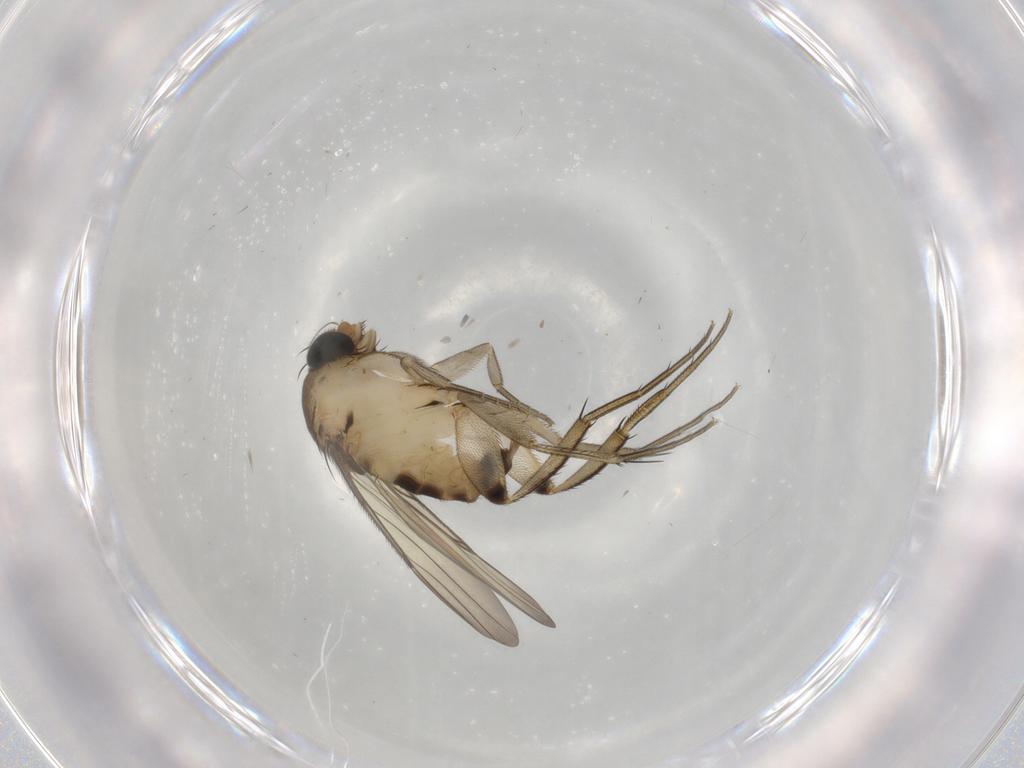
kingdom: Animalia
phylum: Arthropoda
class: Insecta
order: Diptera
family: Phoridae
